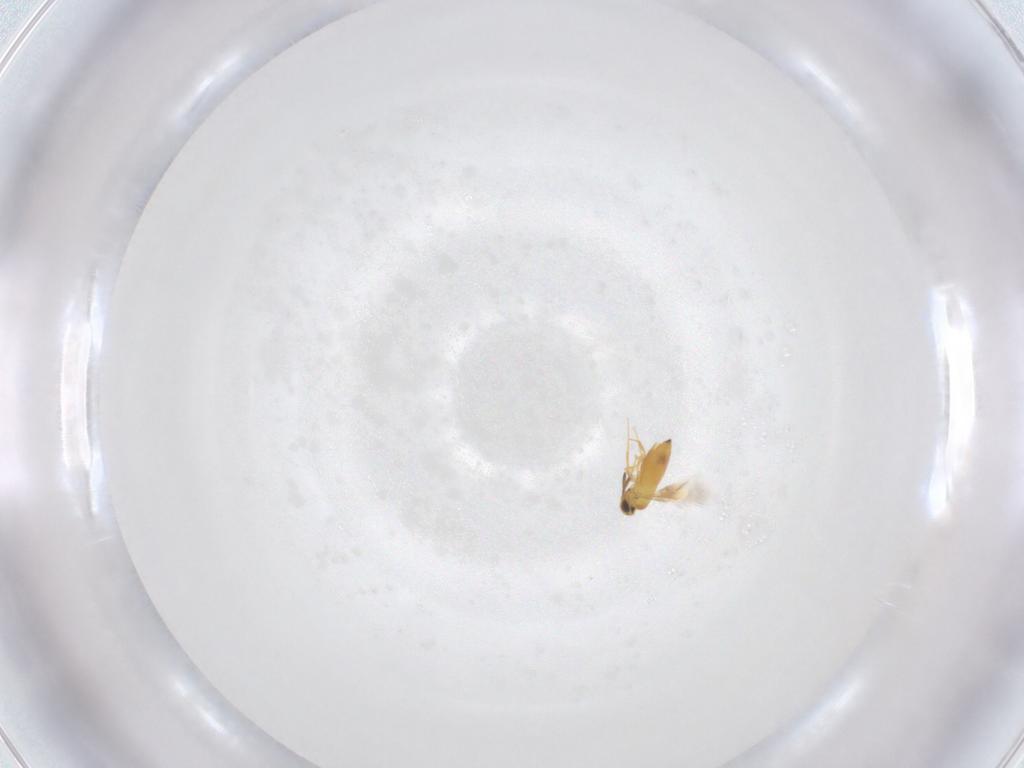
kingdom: Animalia
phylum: Arthropoda
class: Insecta
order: Hymenoptera
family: Signiphoridae
